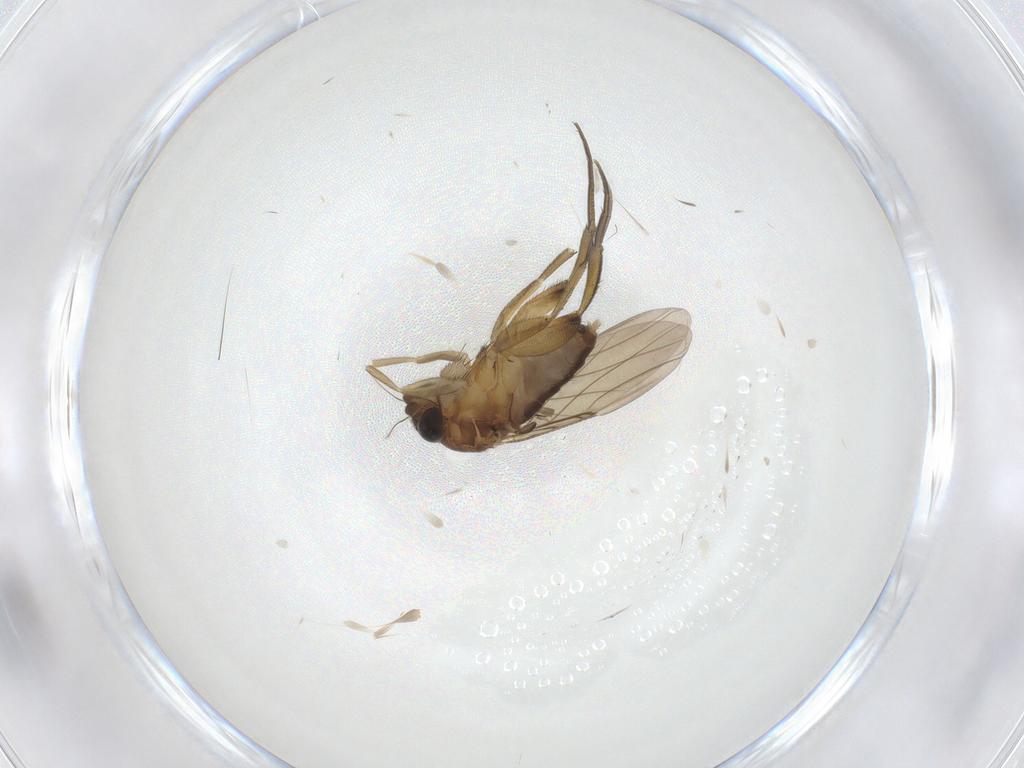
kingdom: Animalia
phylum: Arthropoda
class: Insecta
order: Diptera
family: Phoridae
